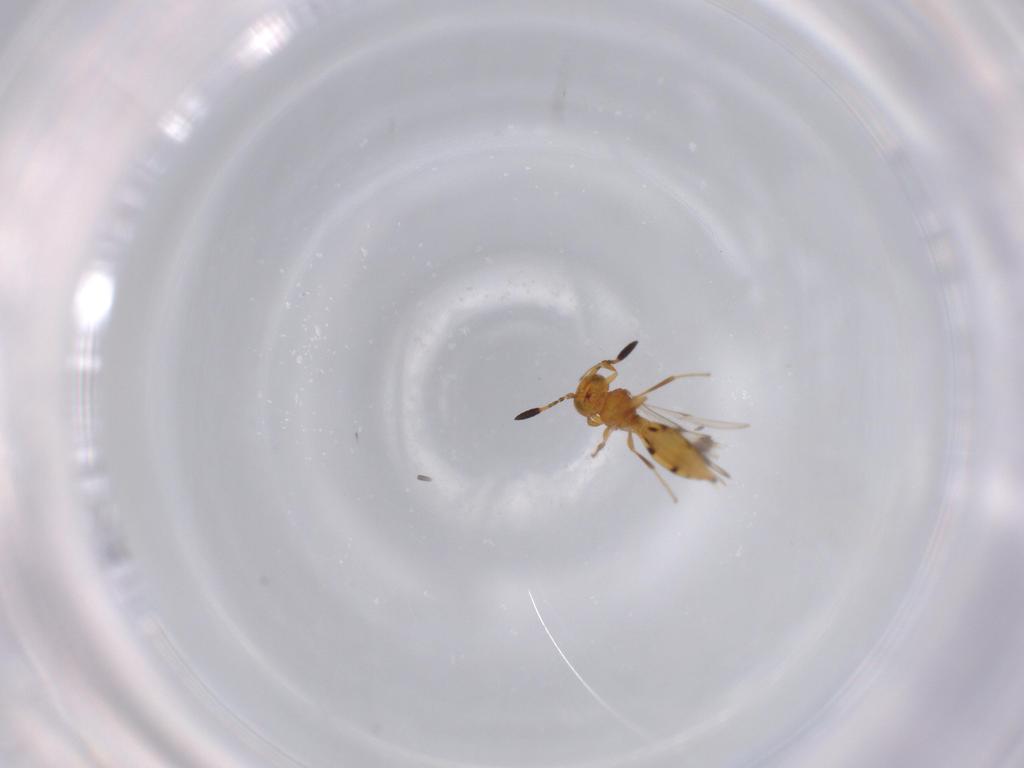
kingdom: Animalia
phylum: Arthropoda
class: Insecta
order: Hymenoptera
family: Scelionidae
